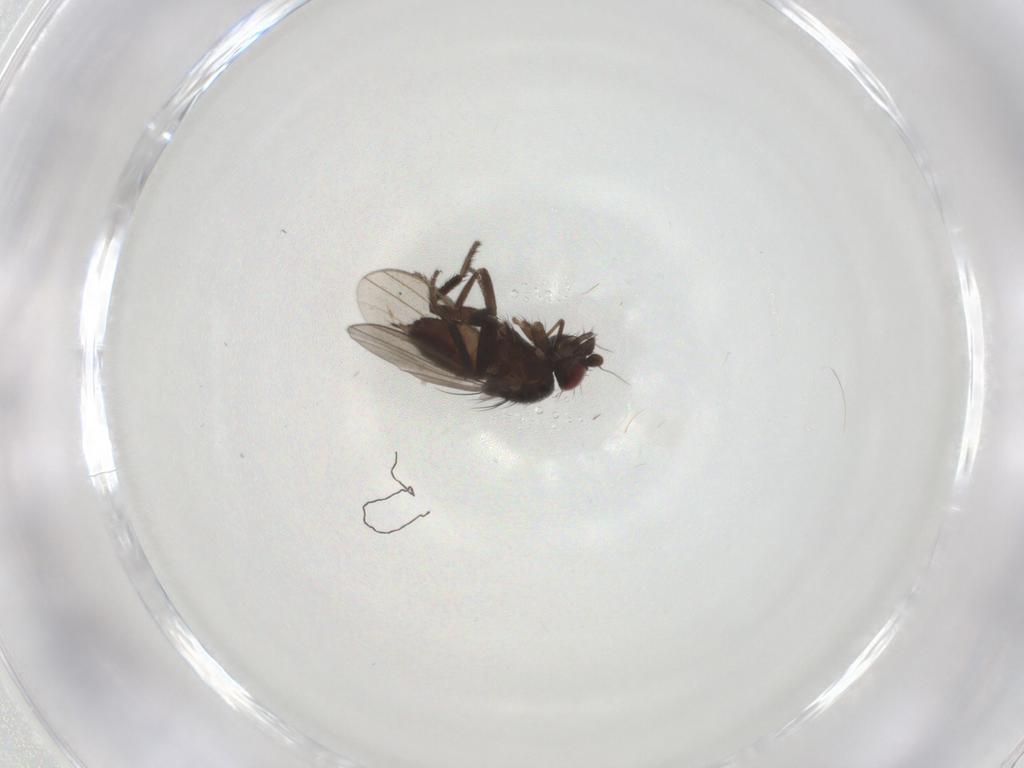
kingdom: Animalia
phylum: Arthropoda
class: Insecta
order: Diptera
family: Milichiidae
